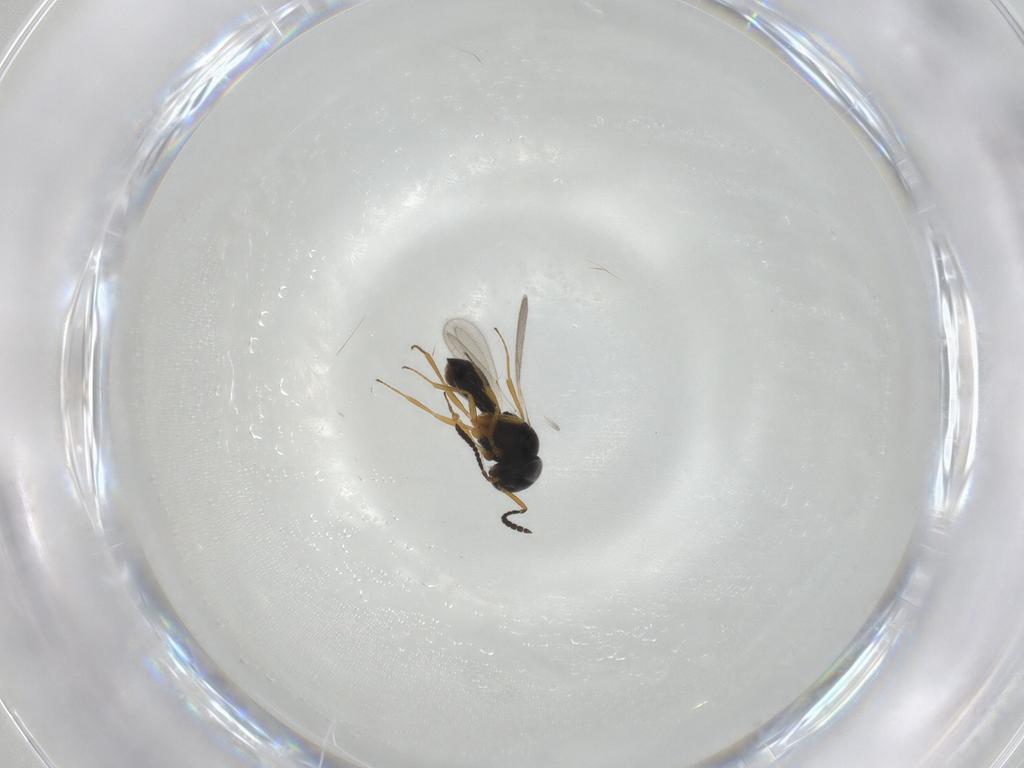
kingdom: Animalia
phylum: Arthropoda
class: Insecta
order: Hymenoptera
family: Scelionidae
